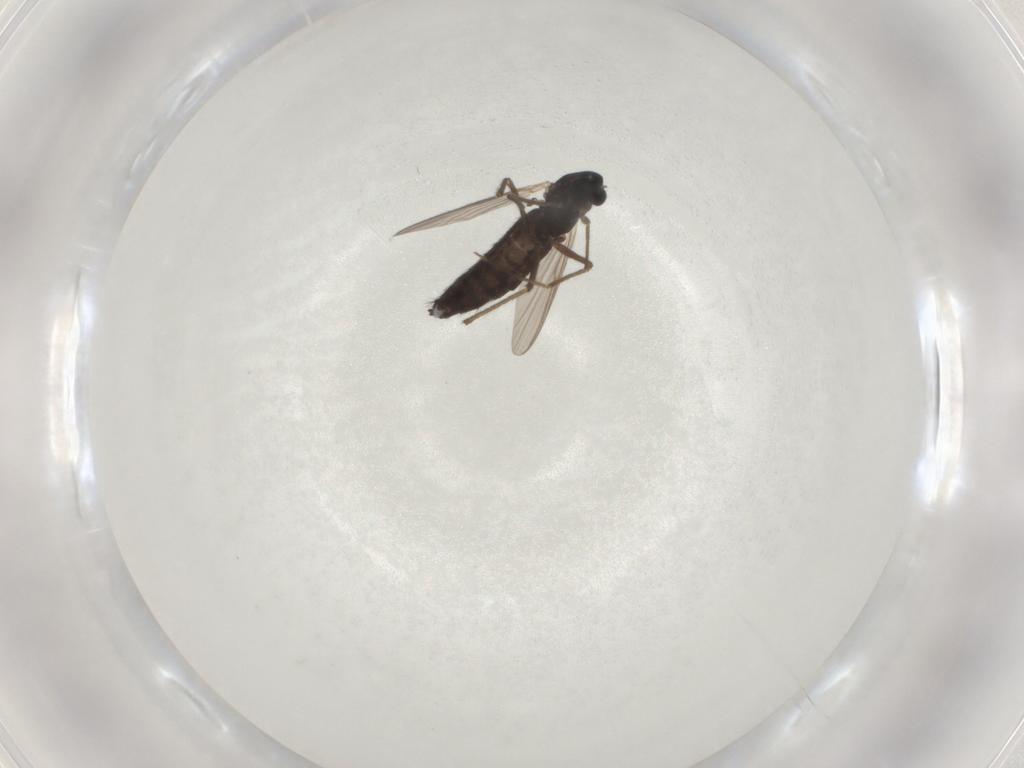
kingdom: Animalia
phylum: Arthropoda
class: Insecta
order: Diptera
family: Chironomidae
